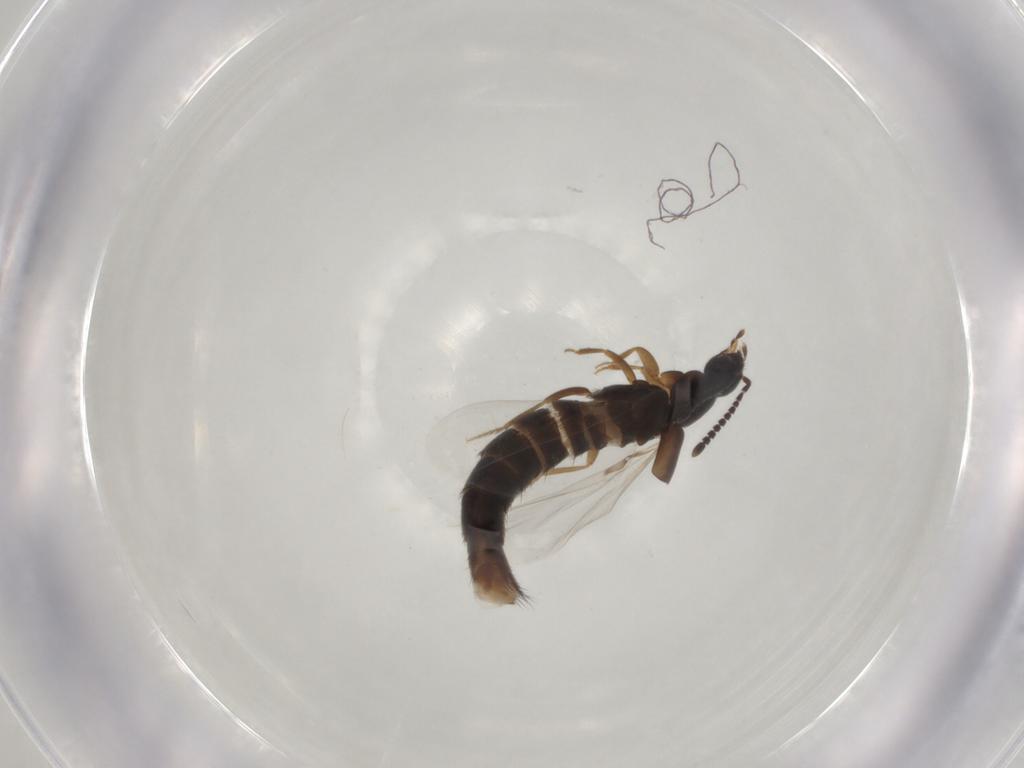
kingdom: Animalia
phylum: Arthropoda
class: Insecta
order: Coleoptera
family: Staphylinidae
